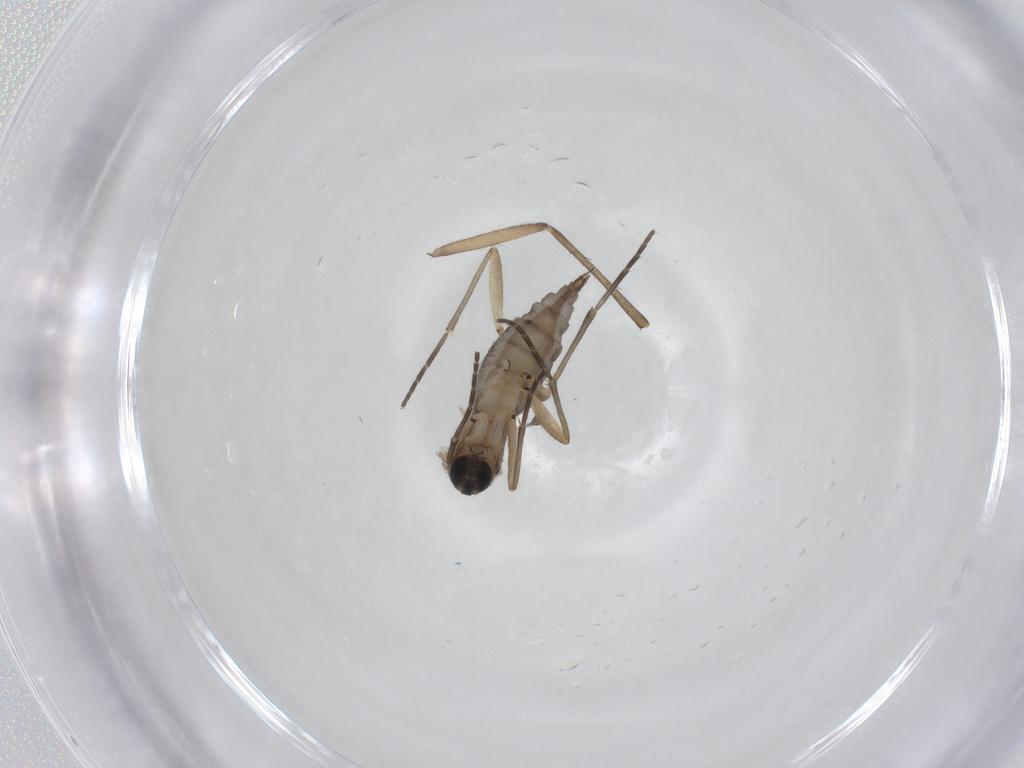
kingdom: Animalia
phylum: Arthropoda
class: Insecta
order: Diptera
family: Sciaridae
